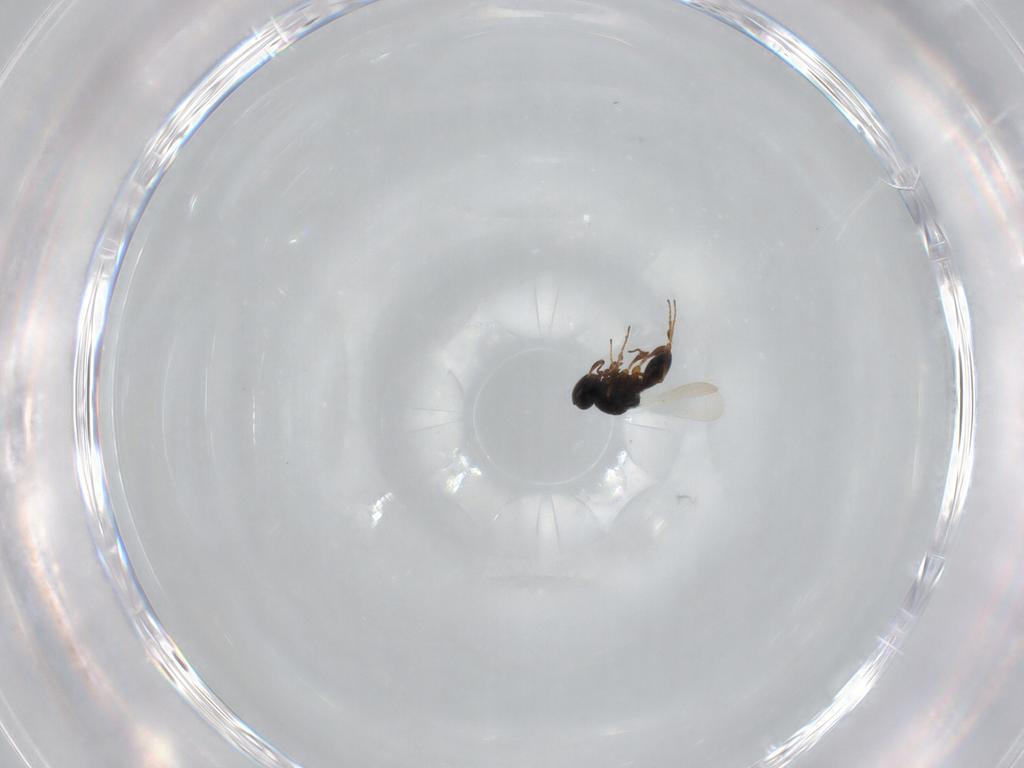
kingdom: Animalia
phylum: Arthropoda
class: Insecta
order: Hymenoptera
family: Platygastridae
